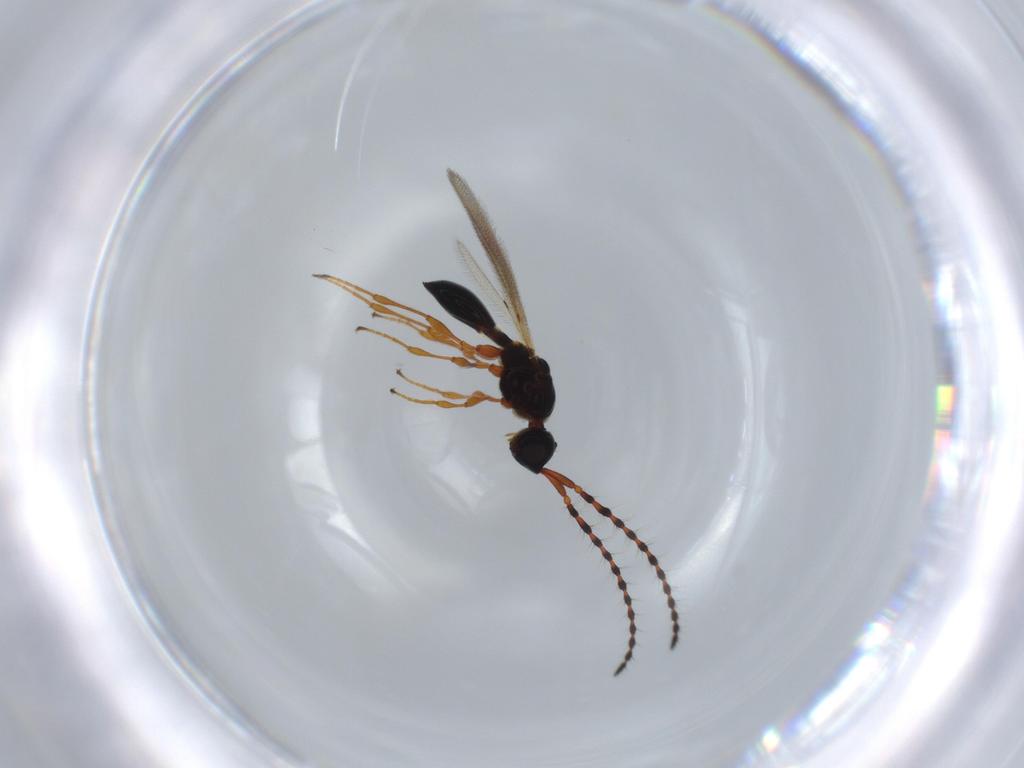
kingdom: Animalia
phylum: Arthropoda
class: Insecta
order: Hymenoptera
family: Diapriidae
